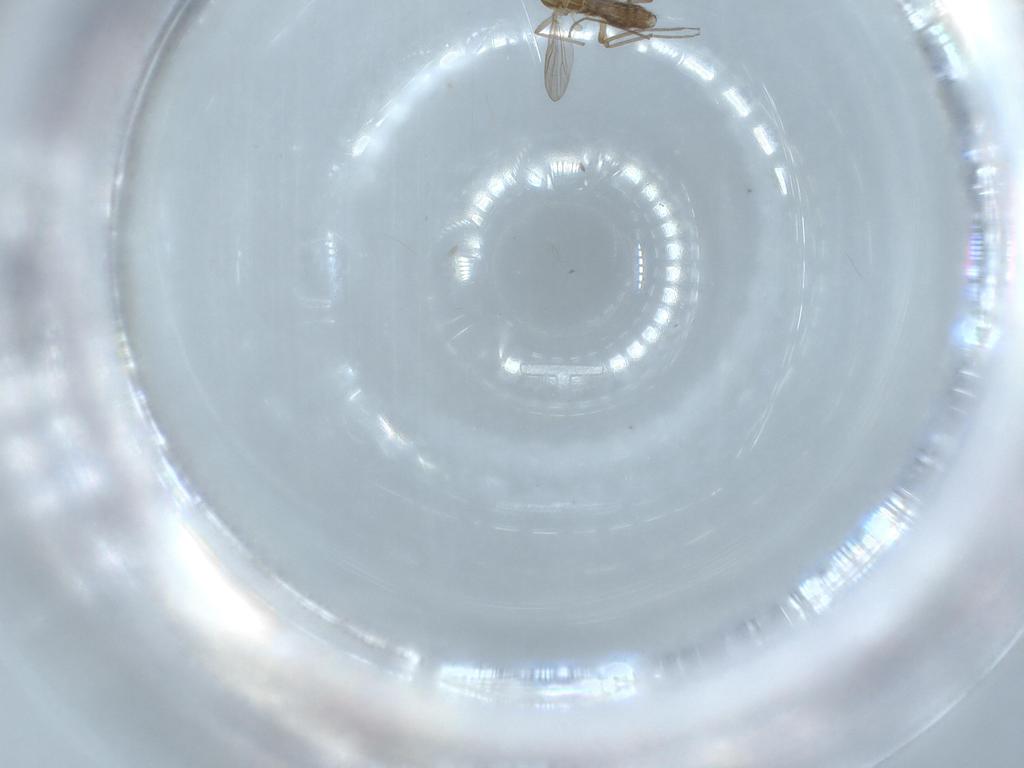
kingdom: Animalia
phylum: Arthropoda
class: Insecta
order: Diptera
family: Chironomidae
